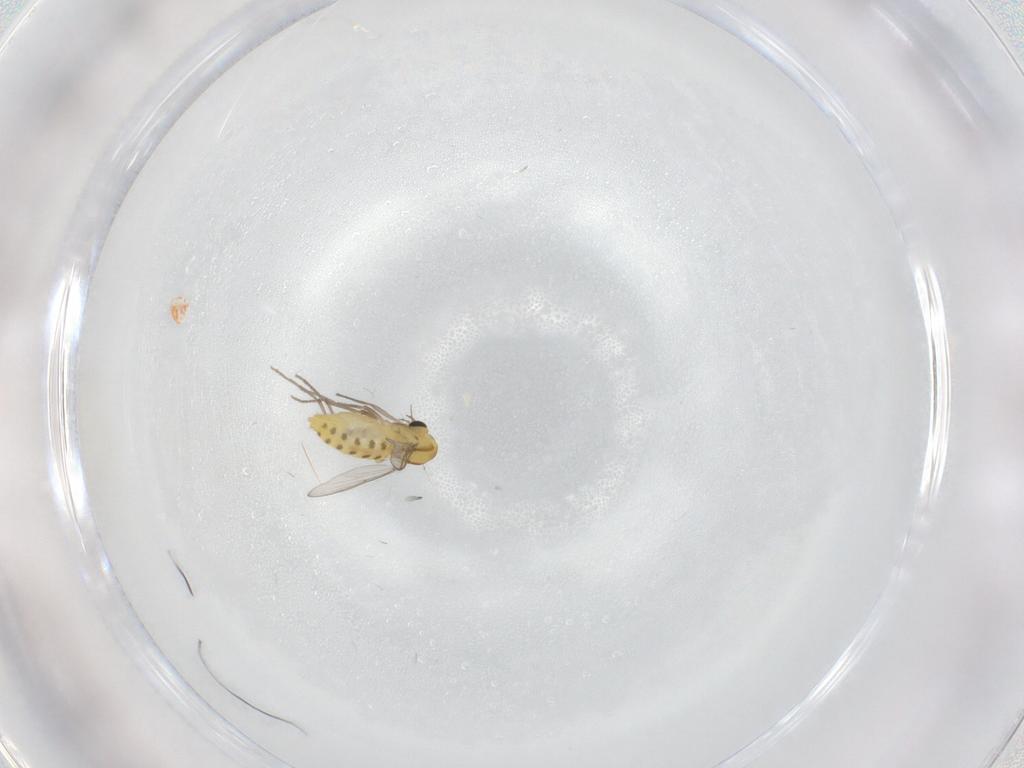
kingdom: Animalia
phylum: Arthropoda
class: Insecta
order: Diptera
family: Chironomidae
